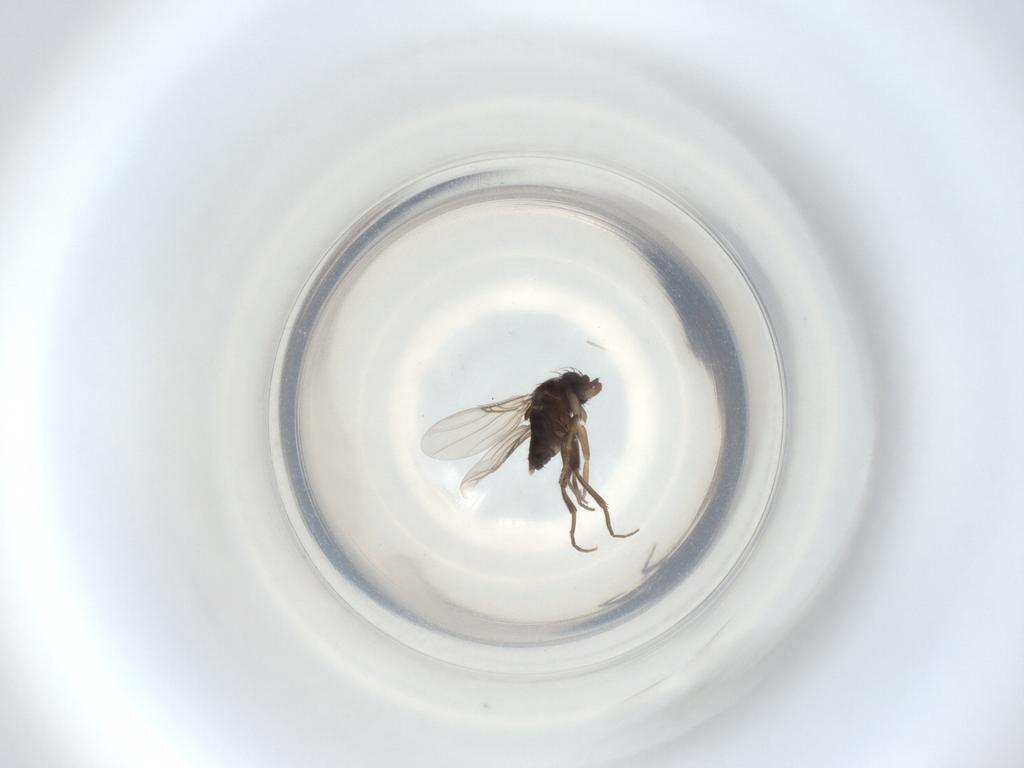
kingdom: Animalia
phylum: Arthropoda
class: Insecta
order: Diptera
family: Phoridae
